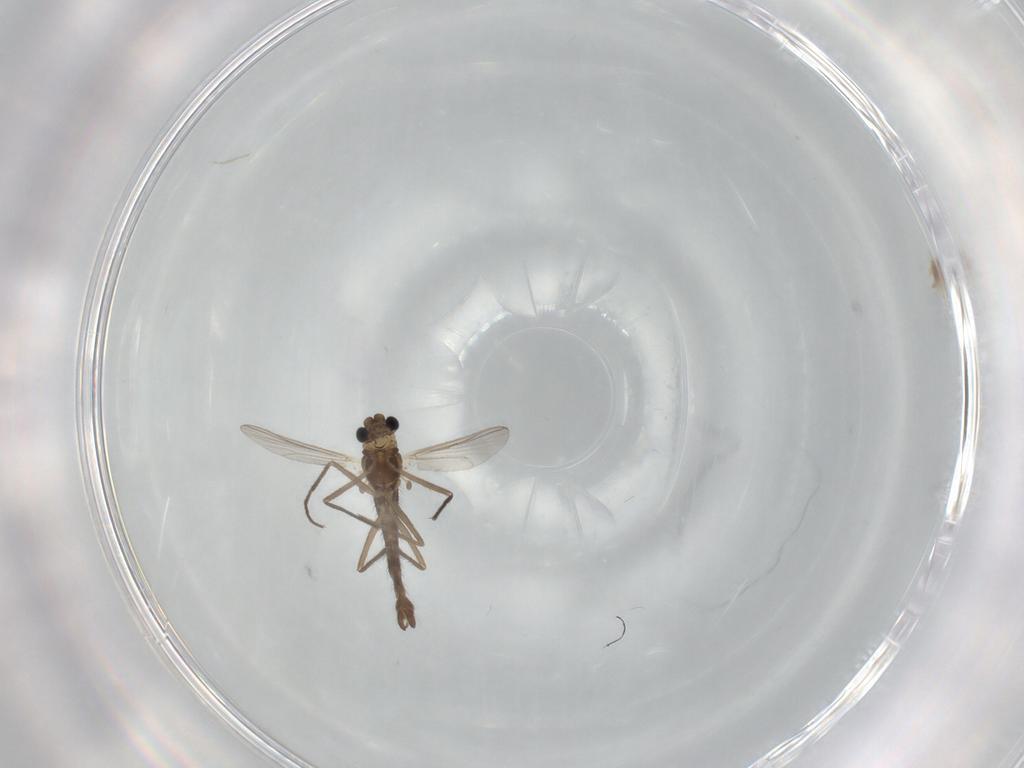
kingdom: Animalia
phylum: Arthropoda
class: Insecta
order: Diptera
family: Chironomidae
